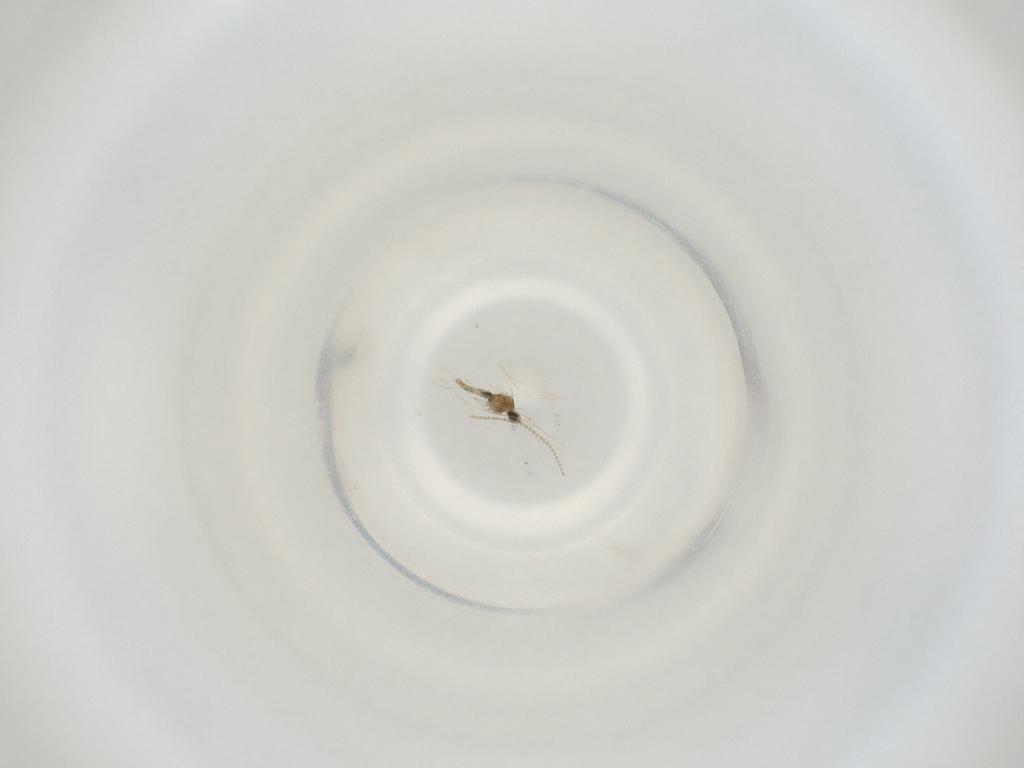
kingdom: Animalia
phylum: Arthropoda
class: Insecta
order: Diptera
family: Cecidomyiidae
